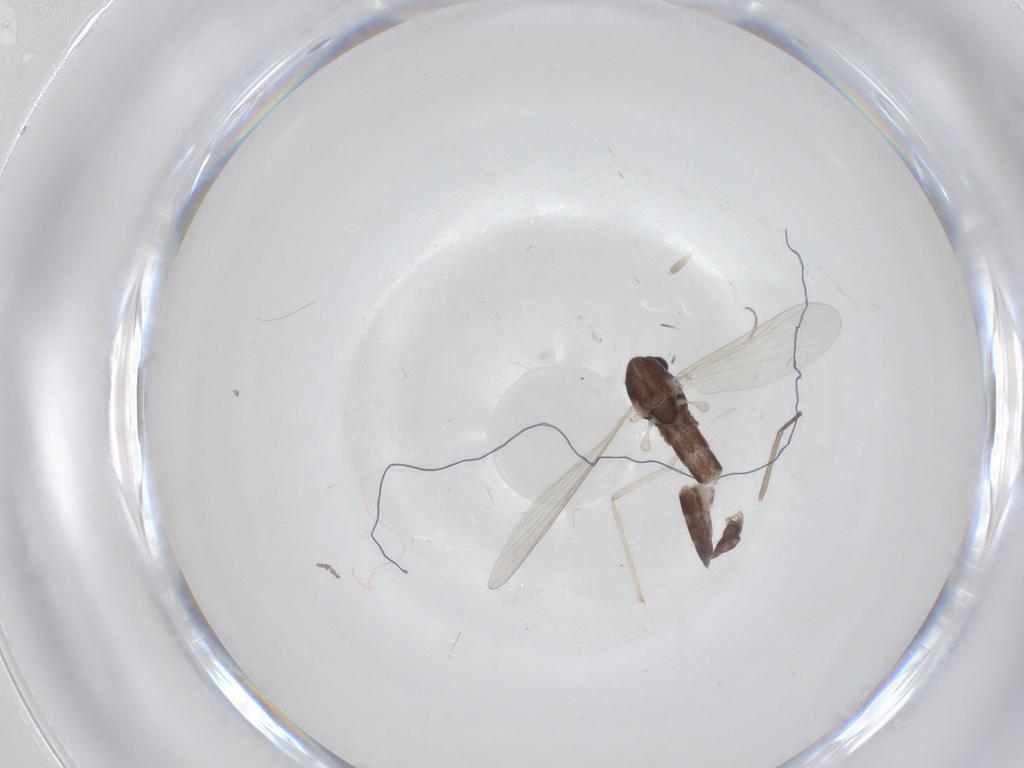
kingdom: Animalia
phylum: Arthropoda
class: Insecta
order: Diptera
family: Chironomidae
